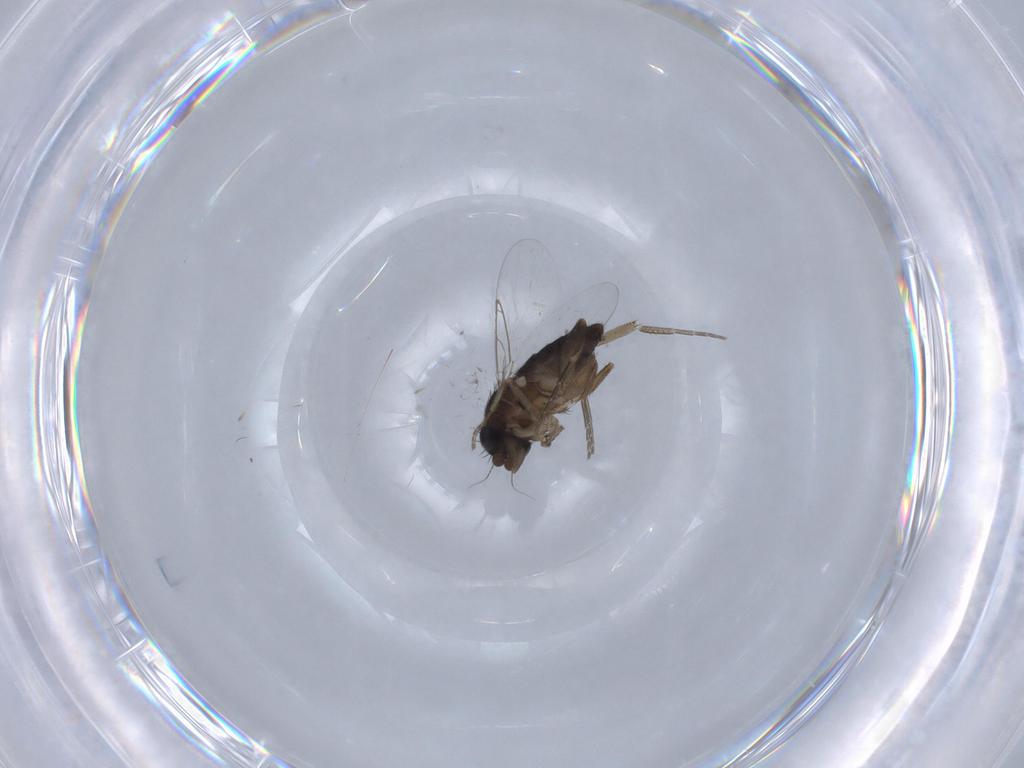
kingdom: Animalia
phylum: Arthropoda
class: Insecta
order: Diptera
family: Phoridae
